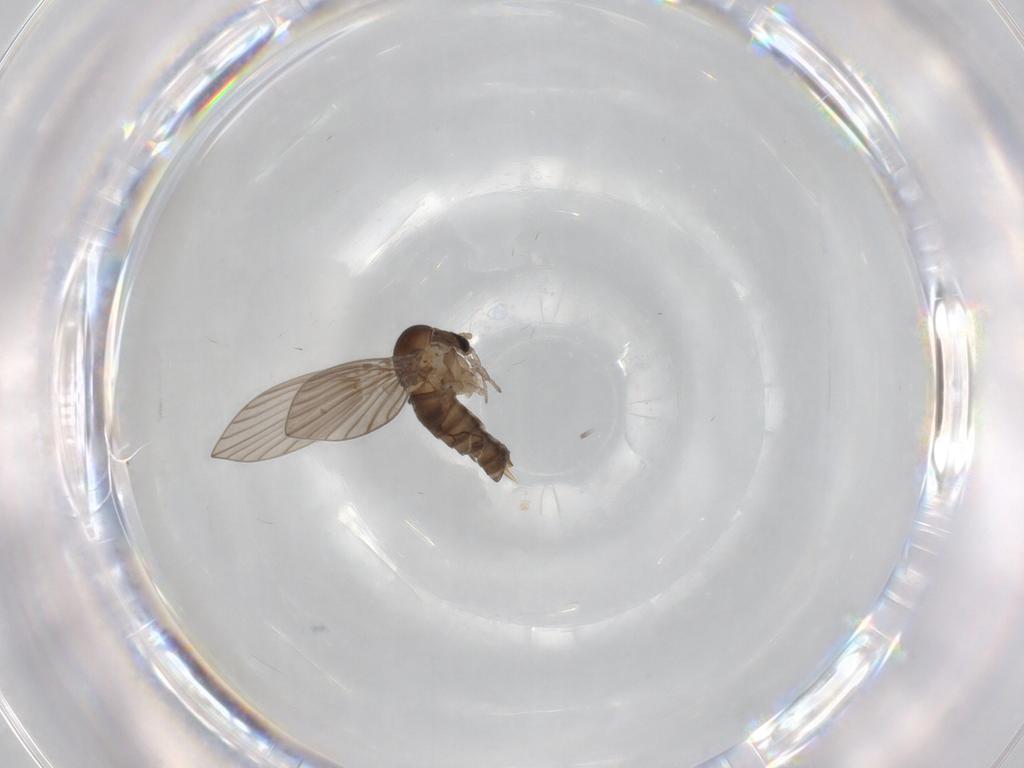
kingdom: Animalia
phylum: Arthropoda
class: Insecta
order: Diptera
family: Psychodidae
